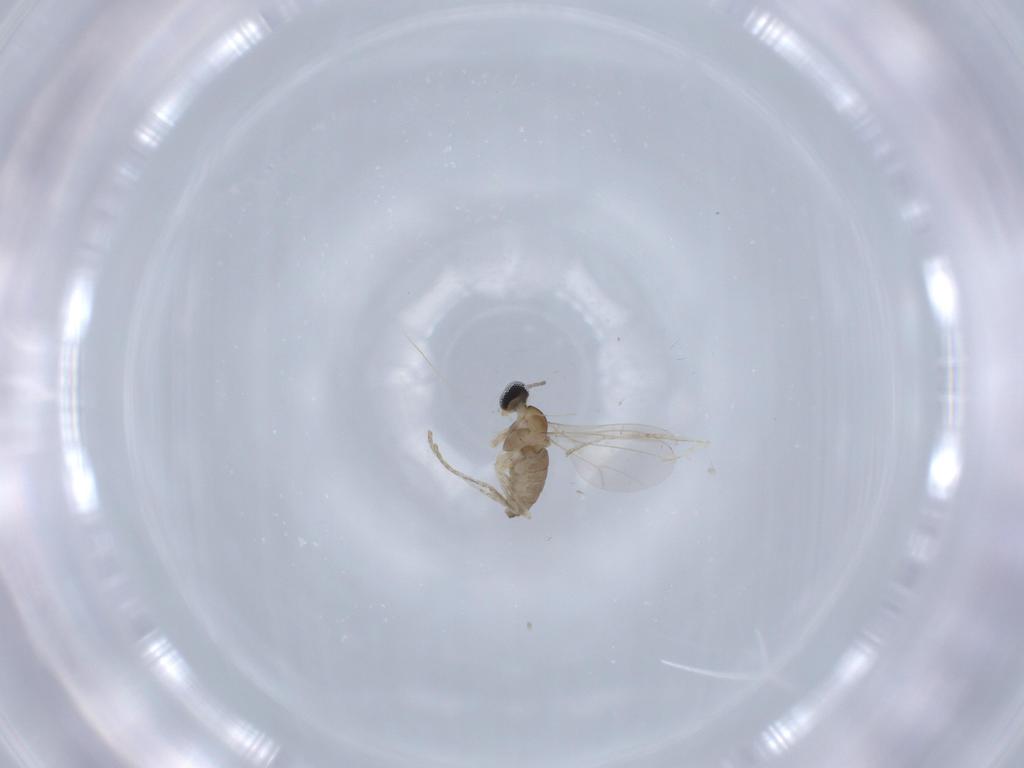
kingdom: Animalia
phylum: Arthropoda
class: Insecta
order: Diptera
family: Cecidomyiidae
